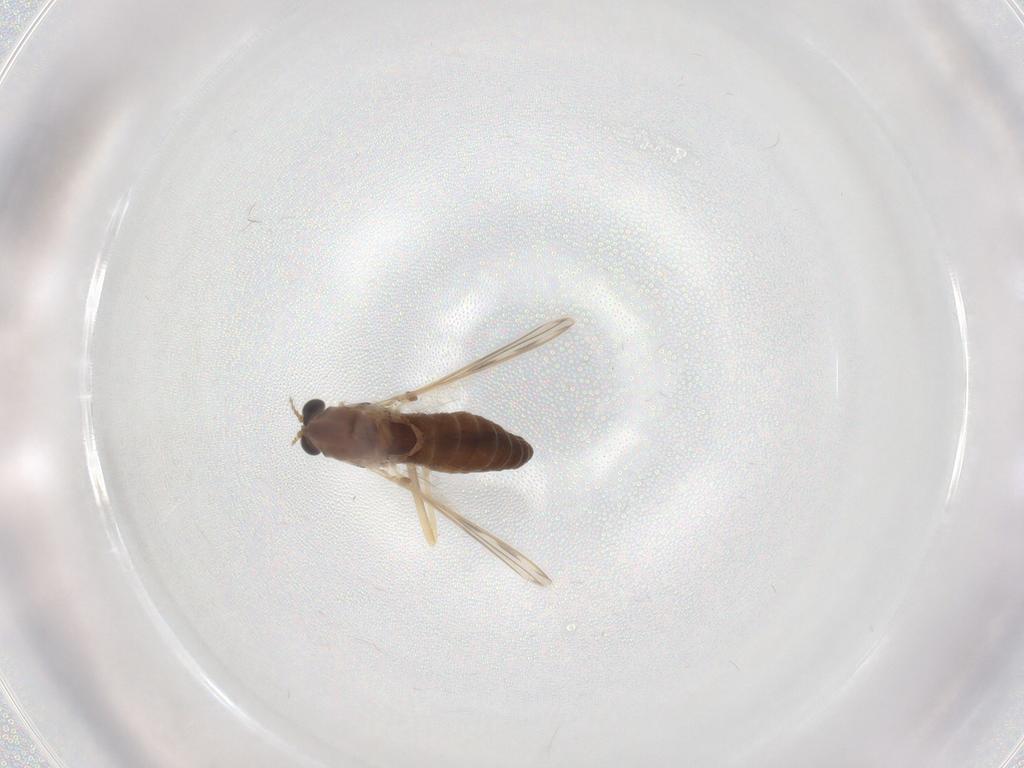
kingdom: Animalia
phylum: Arthropoda
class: Insecta
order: Diptera
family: Chironomidae
